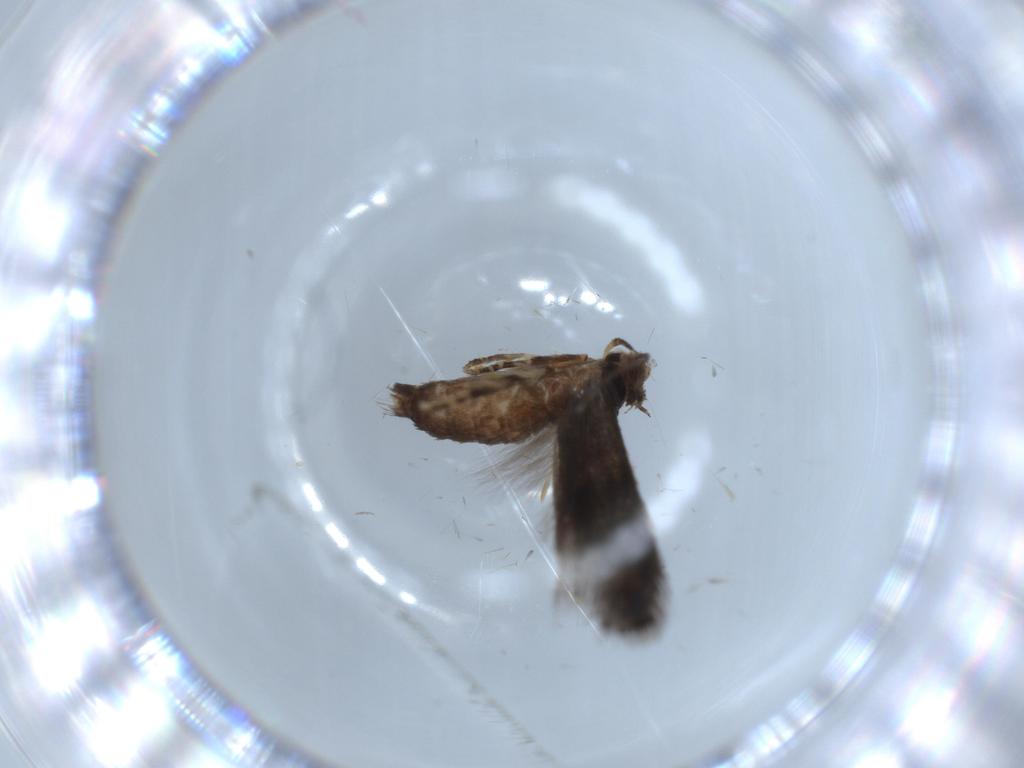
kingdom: Animalia
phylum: Arthropoda
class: Insecta
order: Lepidoptera
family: Gelechiidae
